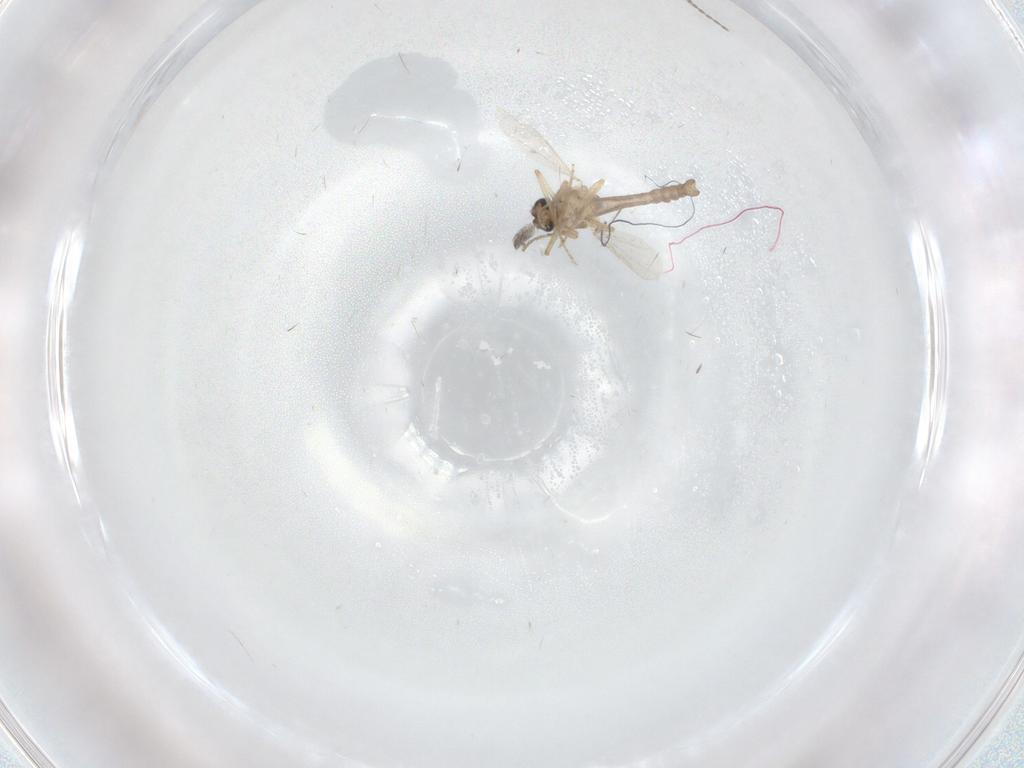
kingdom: Animalia
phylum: Arthropoda
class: Insecta
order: Diptera
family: Ceratopogonidae
